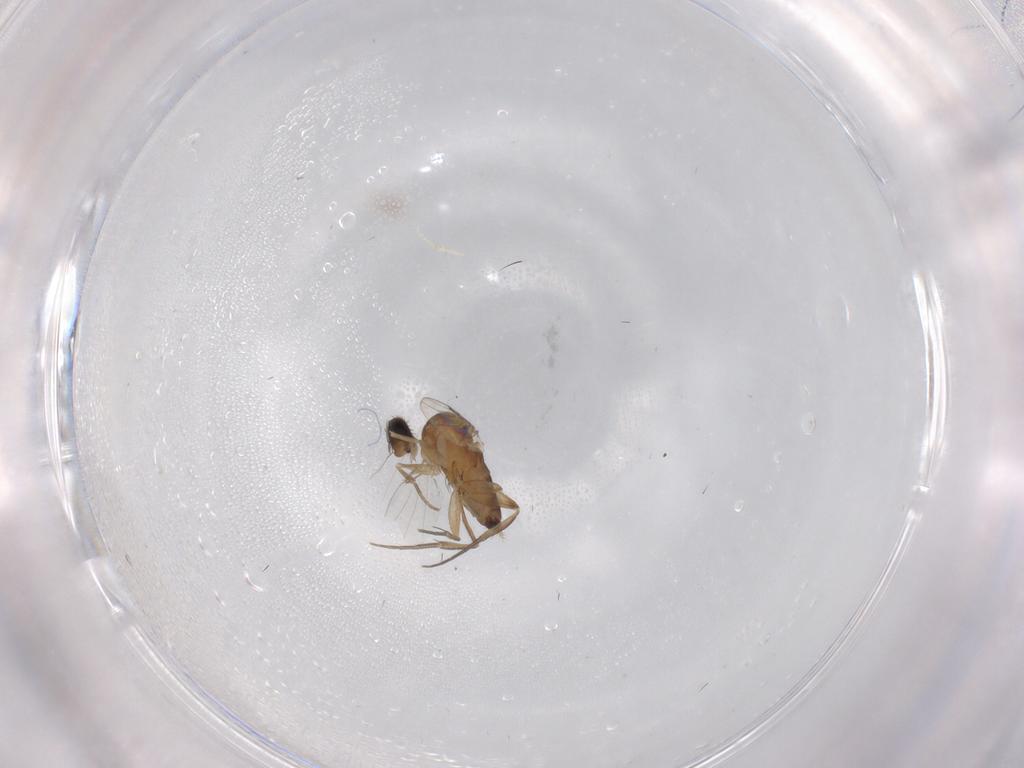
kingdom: Animalia
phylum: Arthropoda
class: Insecta
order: Diptera
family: Phoridae
